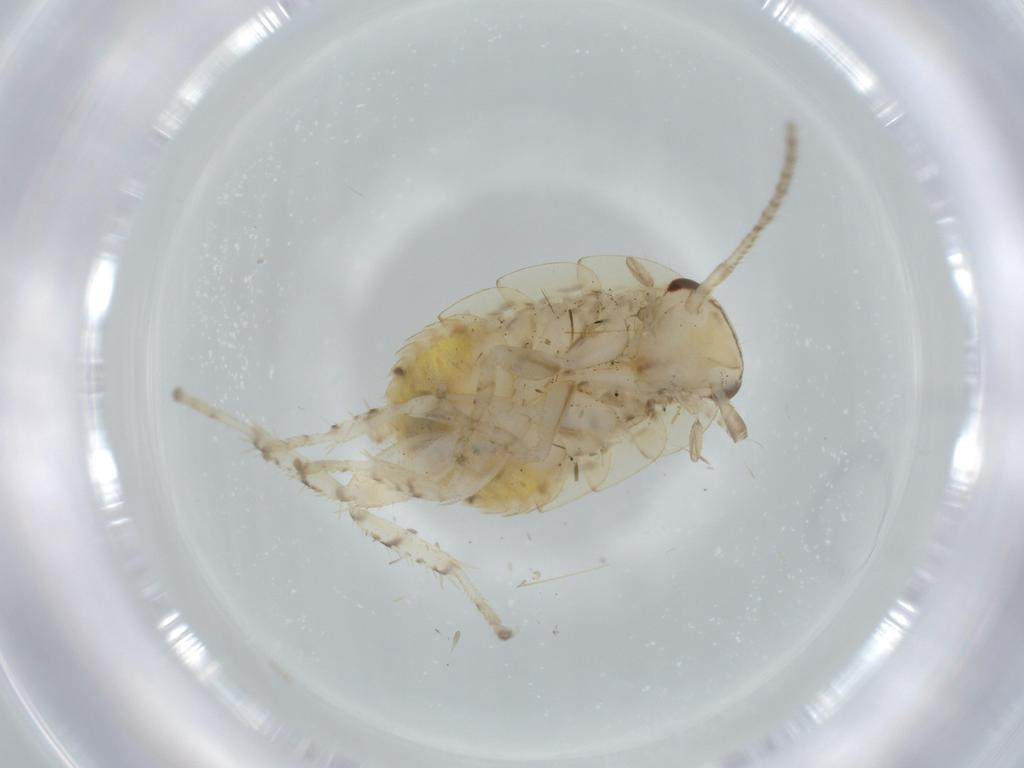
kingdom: Animalia
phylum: Arthropoda
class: Insecta
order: Blattodea
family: Ectobiidae
